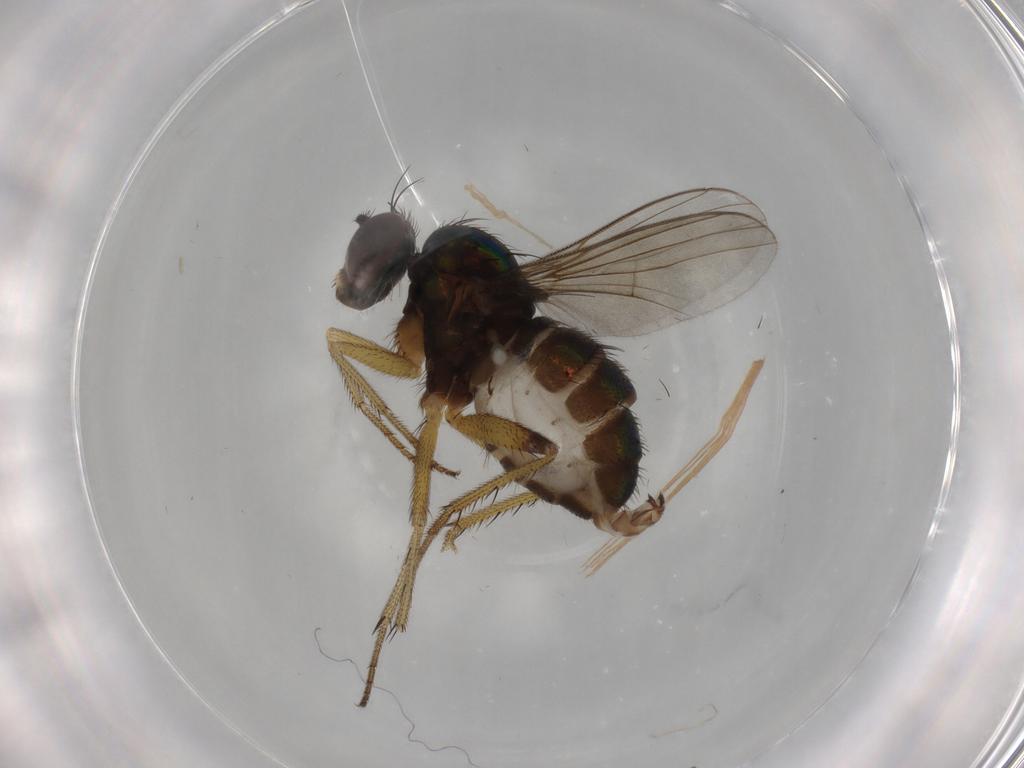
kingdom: Animalia
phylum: Arthropoda
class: Insecta
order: Diptera
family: Dolichopodidae
